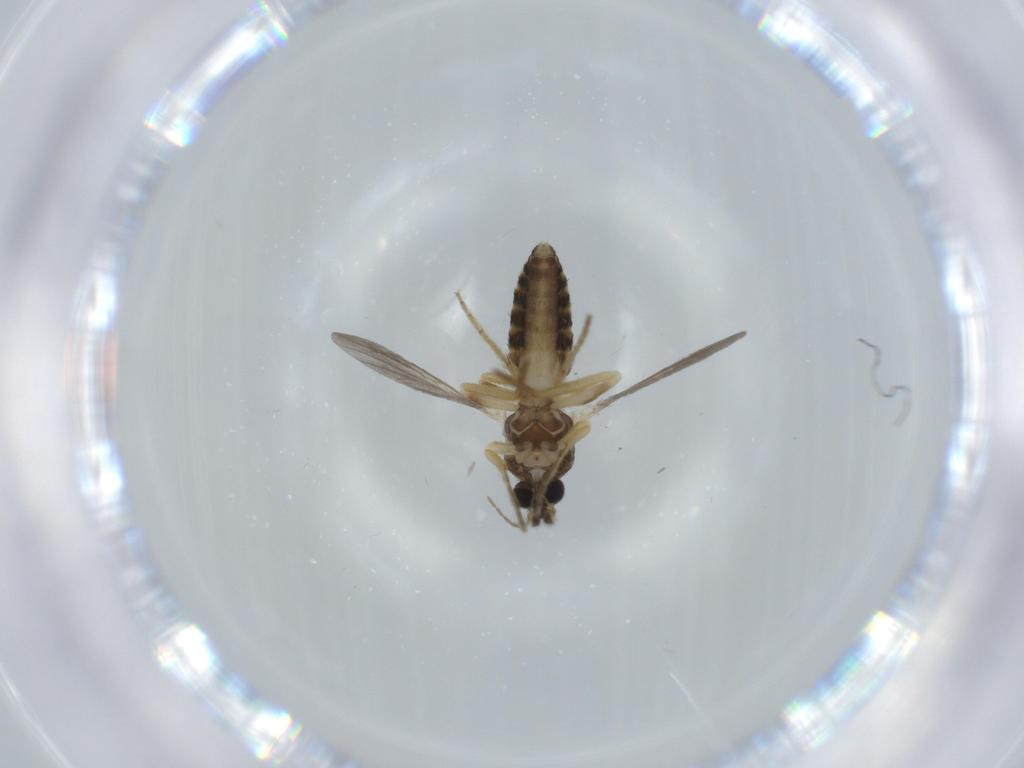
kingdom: Animalia
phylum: Arthropoda
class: Insecta
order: Diptera
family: Ceratopogonidae
